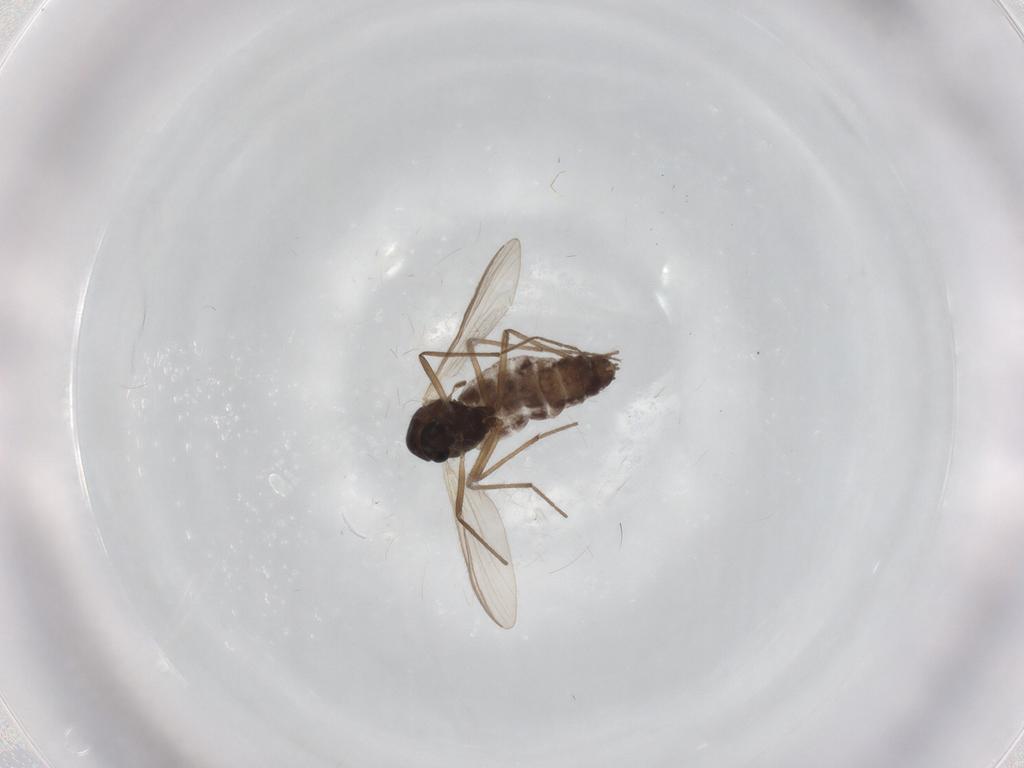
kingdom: Animalia
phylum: Arthropoda
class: Insecta
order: Diptera
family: Chironomidae
